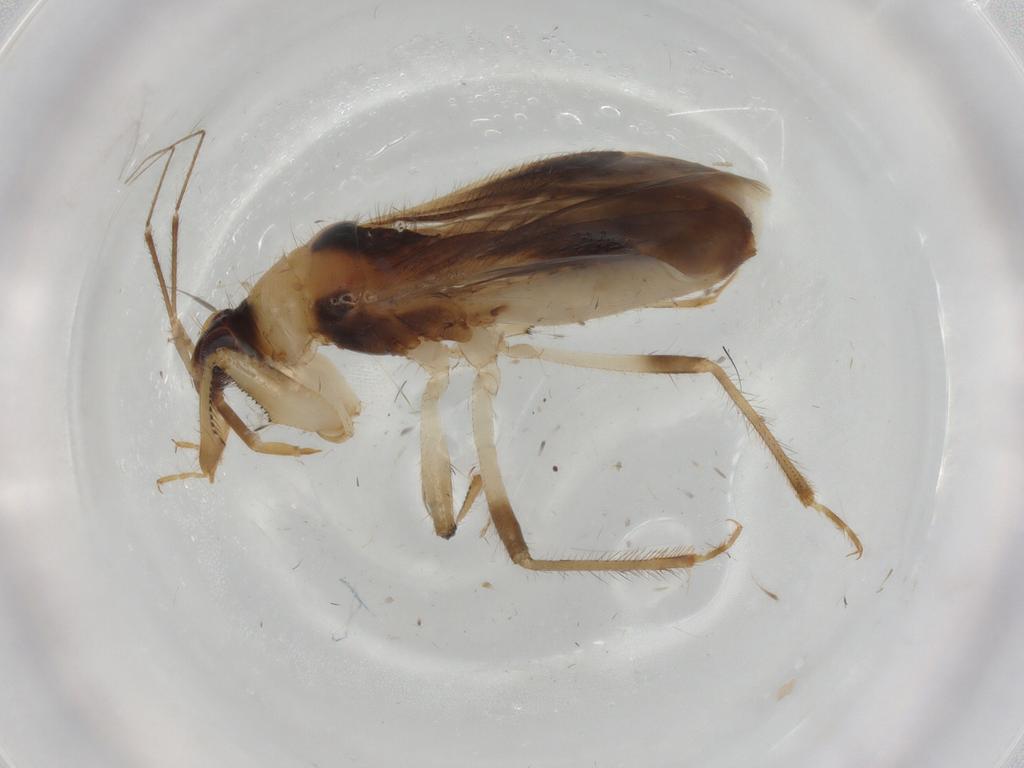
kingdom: Animalia
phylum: Arthropoda
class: Insecta
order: Hemiptera
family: Nabidae
